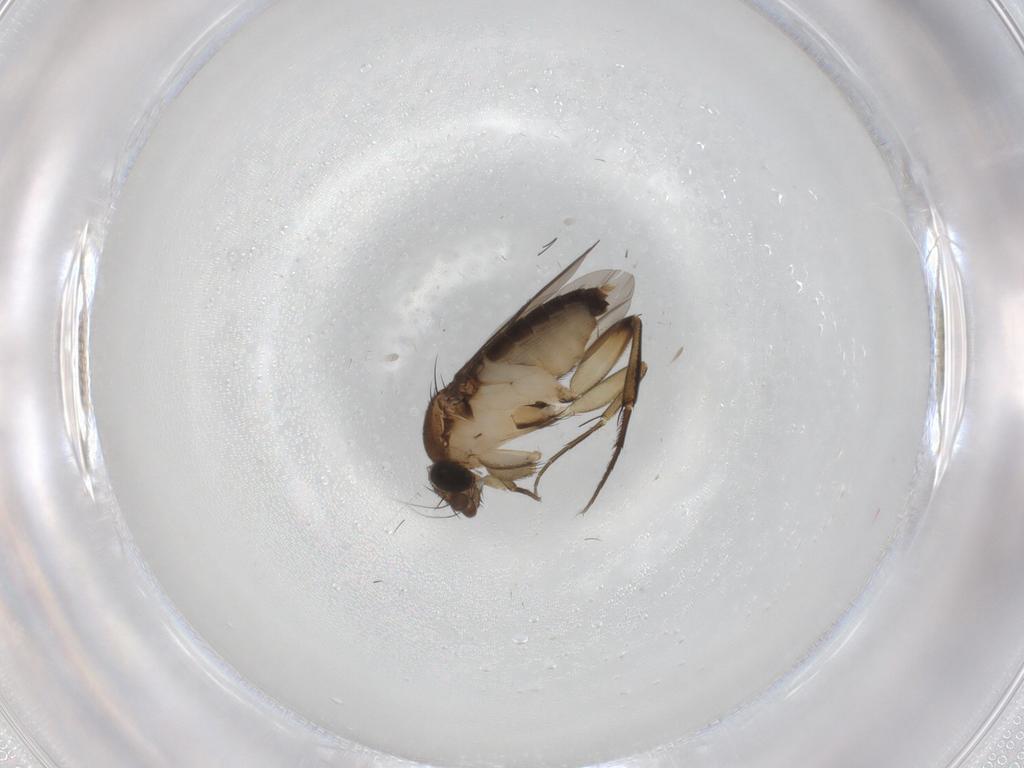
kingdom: Animalia
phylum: Arthropoda
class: Insecta
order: Diptera
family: Phoridae
